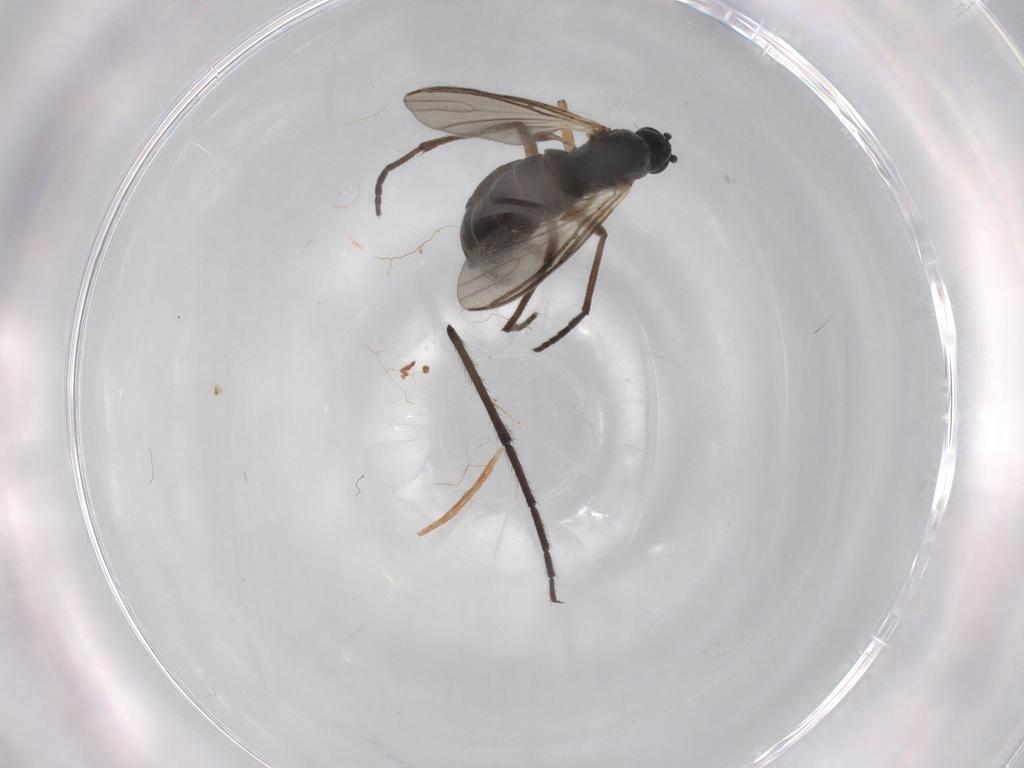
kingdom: Animalia
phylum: Arthropoda
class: Insecta
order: Diptera
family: Chironomidae
